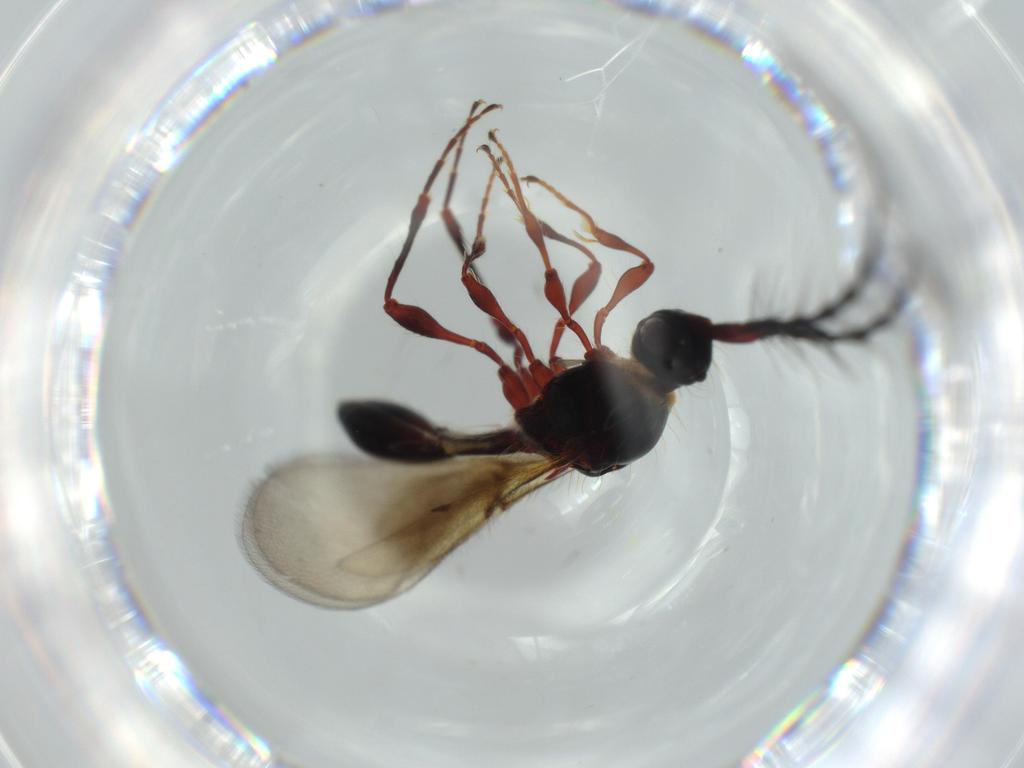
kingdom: Animalia
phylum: Arthropoda
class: Insecta
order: Hymenoptera
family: Diapriidae
